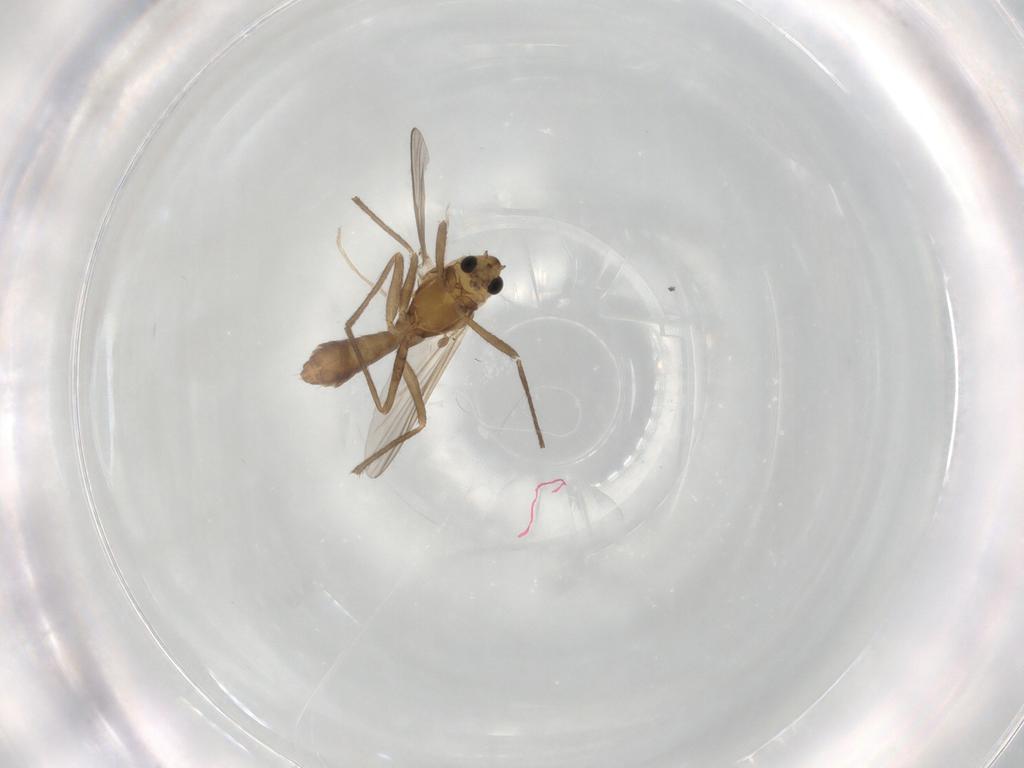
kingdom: Animalia
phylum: Arthropoda
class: Insecta
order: Diptera
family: Chironomidae
